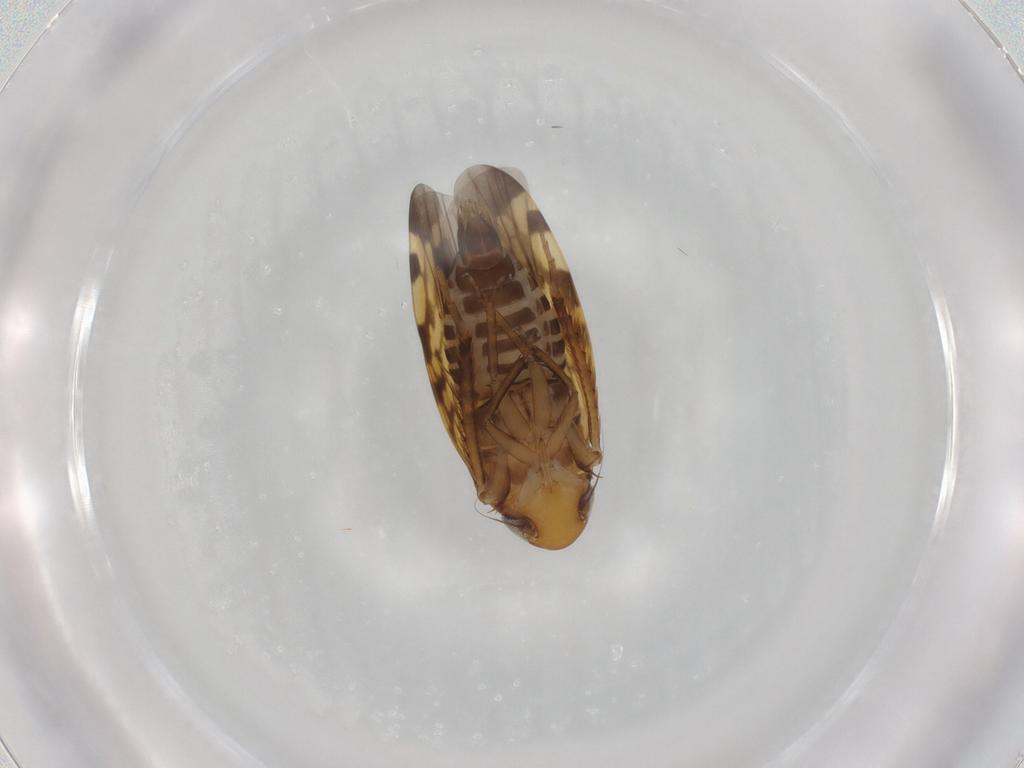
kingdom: Animalia
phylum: Arthropoda
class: Insecta
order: Hemiptera
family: Cicadellidae
